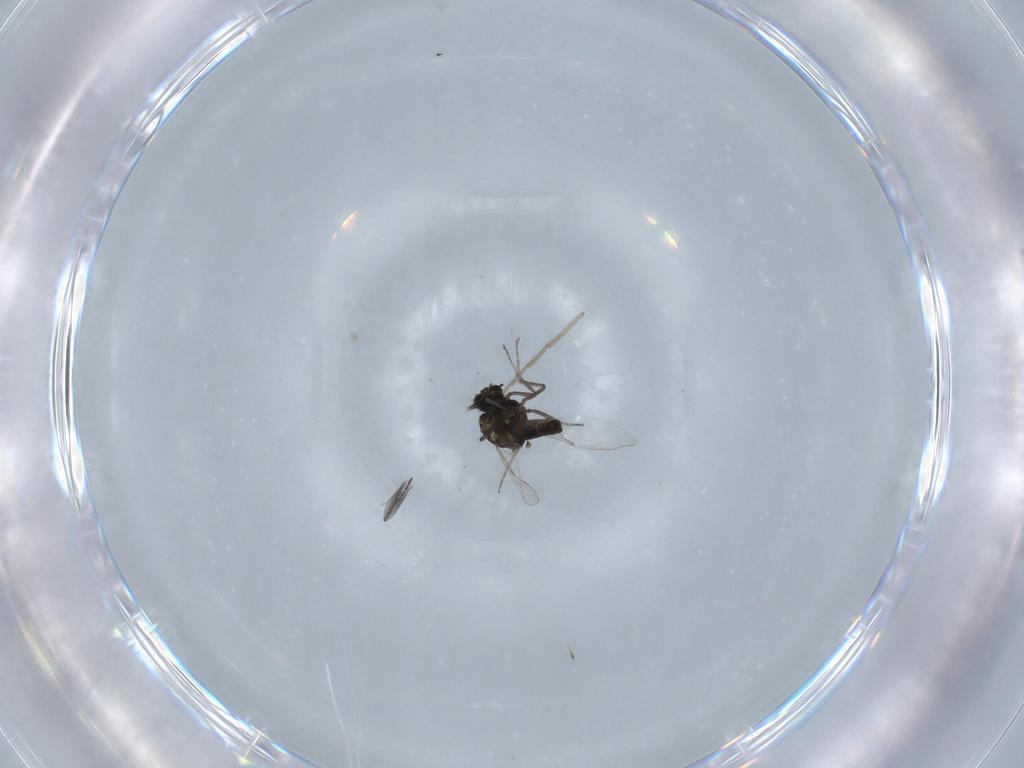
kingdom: Animalia
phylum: Arthropoda
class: Insecta
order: Diptera
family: Ceratopogonidae
